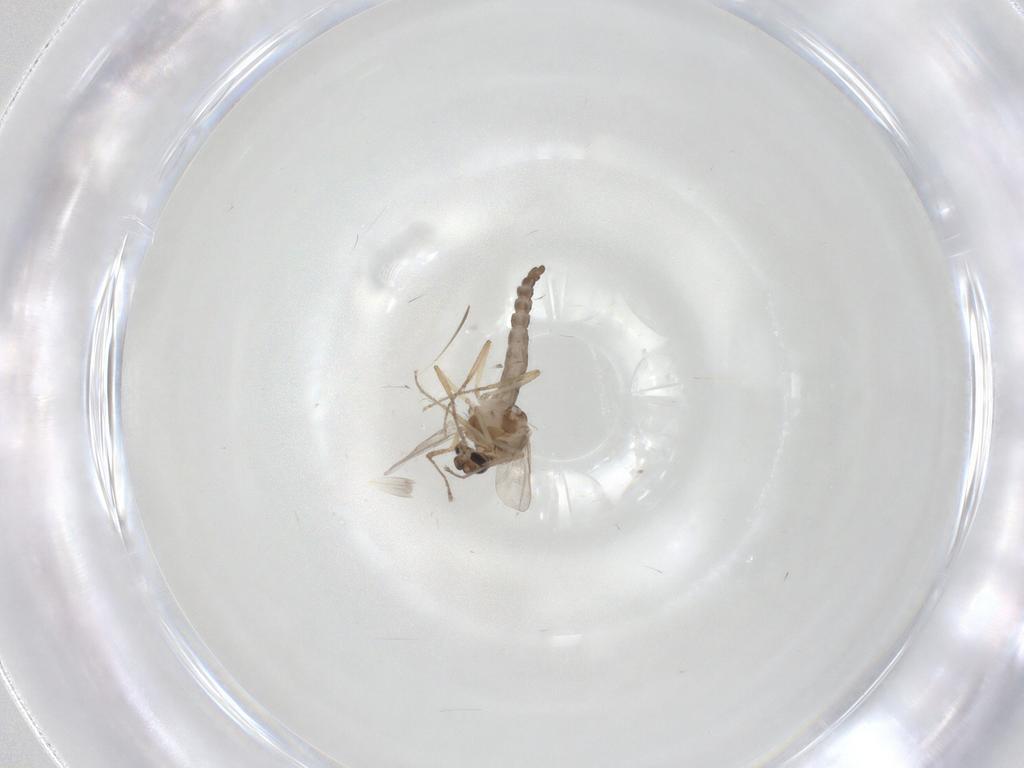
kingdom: Animalia
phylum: Arthropoda
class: Insecta
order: Diptera
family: Ceratopogonidae
